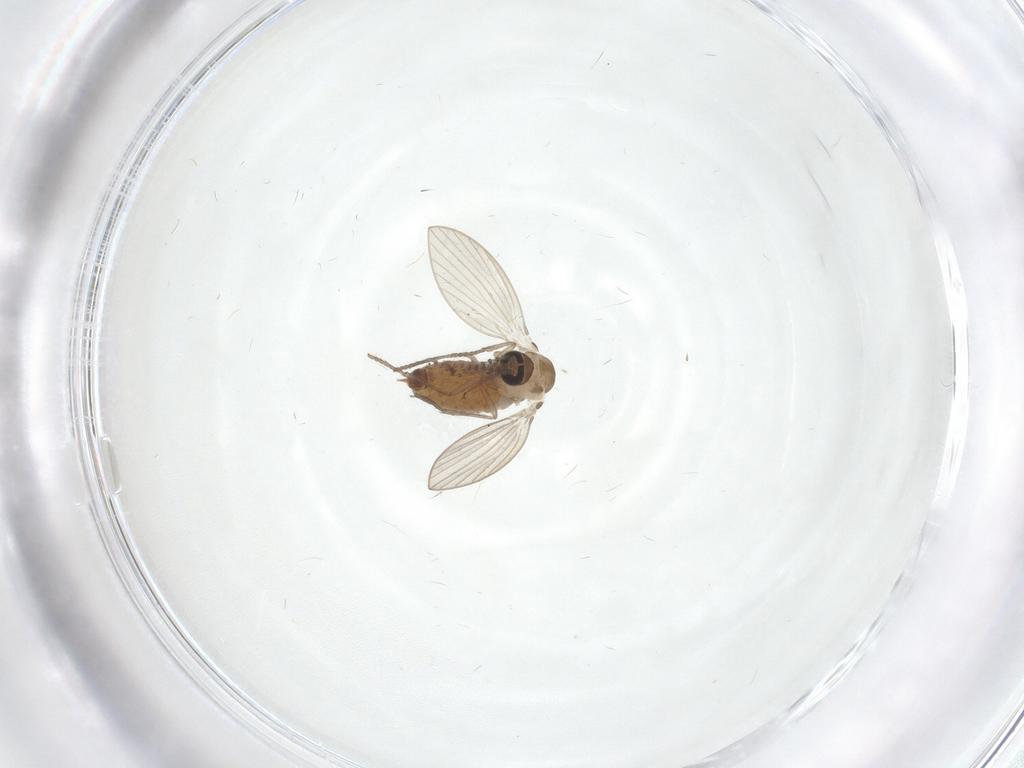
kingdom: Animalia
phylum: Arthropoda
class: Insecta
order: Diptera
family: Psychodidae
